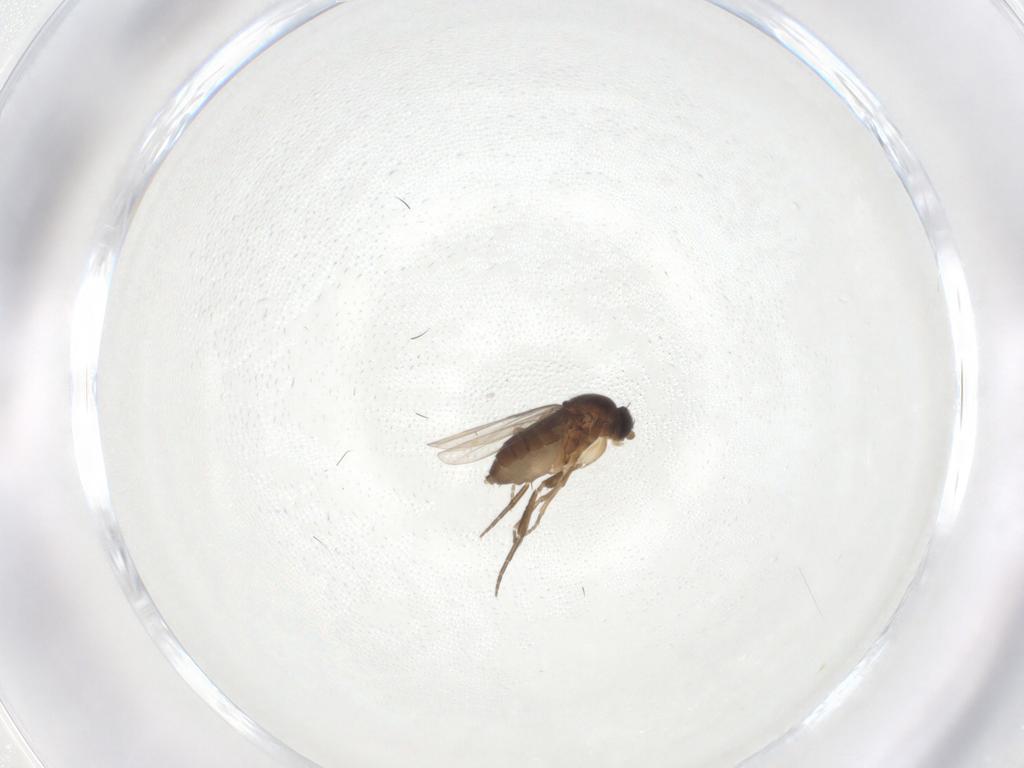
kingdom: Animalia
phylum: Arthropoda
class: Insecta
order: Diptera
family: Phoridae
